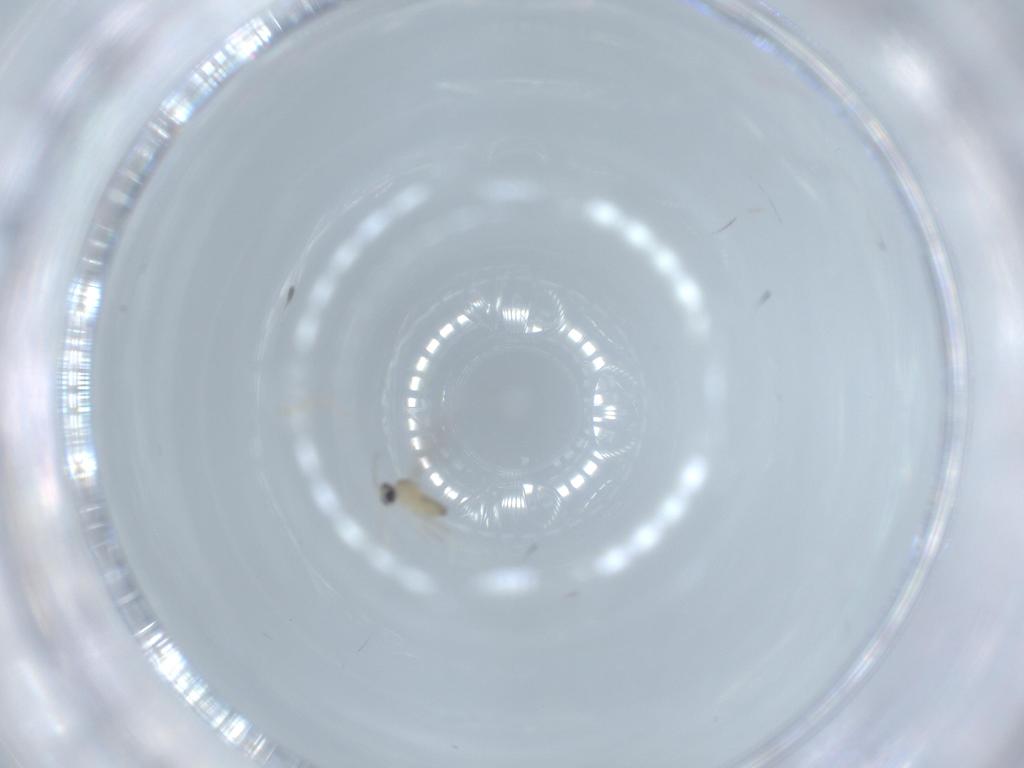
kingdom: Animalia
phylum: Arthropoda
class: Insecta
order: Diptera
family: Cecidomyiidae
